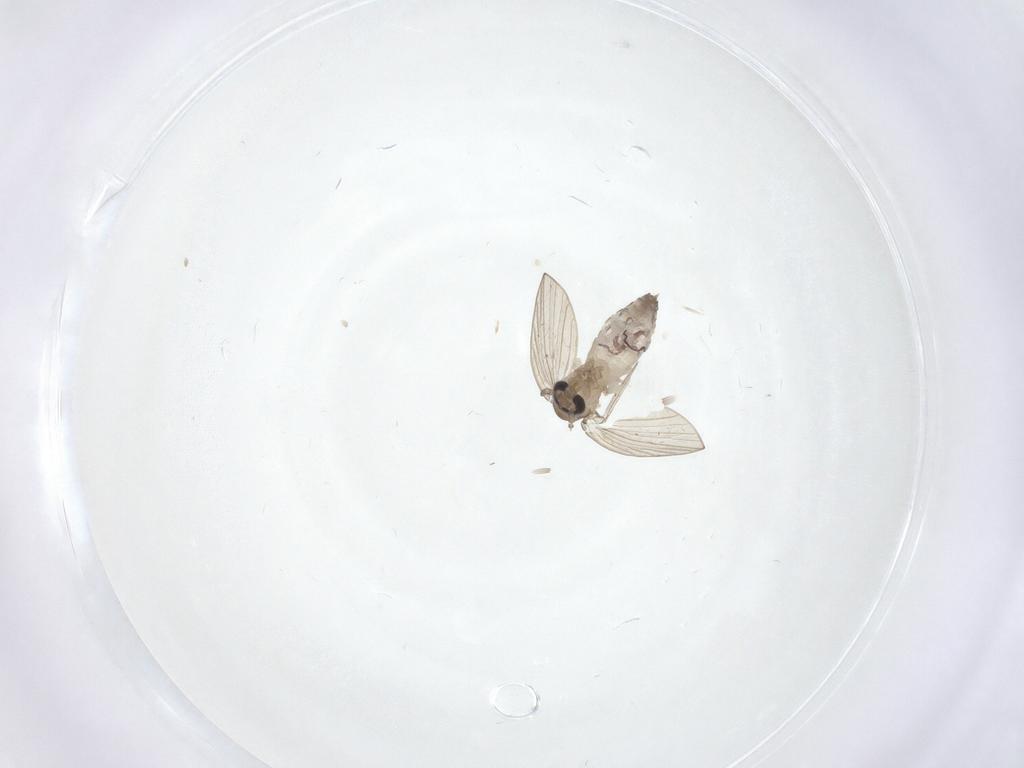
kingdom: Animalia
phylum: Arthropoda
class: Insecta
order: Diptera
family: Psychodidae
